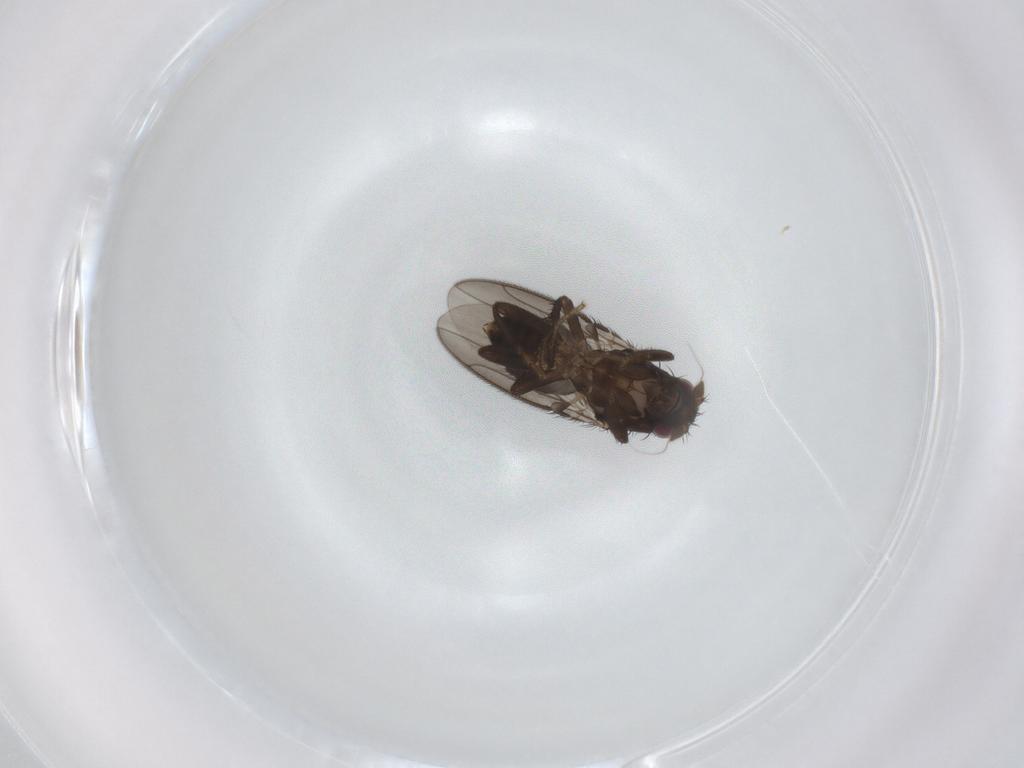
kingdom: Animalia
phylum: Arthropoda
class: Insecta
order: Diptera
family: Sphaeroceridae
